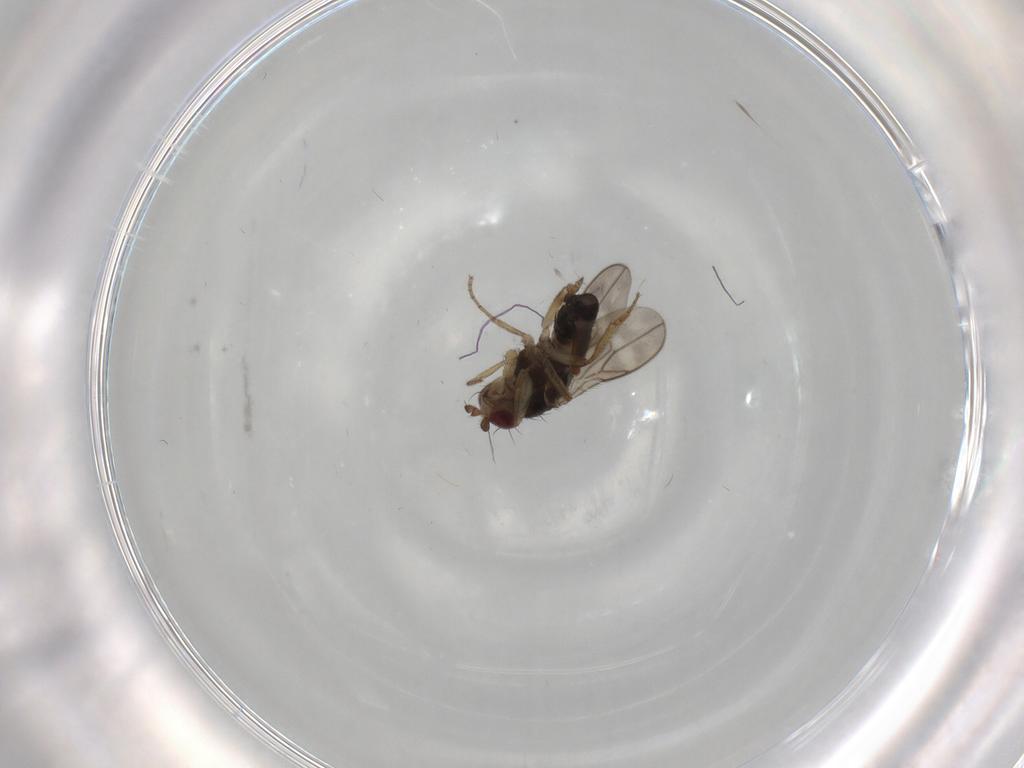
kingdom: Animalia
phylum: Arthropoda
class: Insecta
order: Diptera
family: Sphaeroceridae
